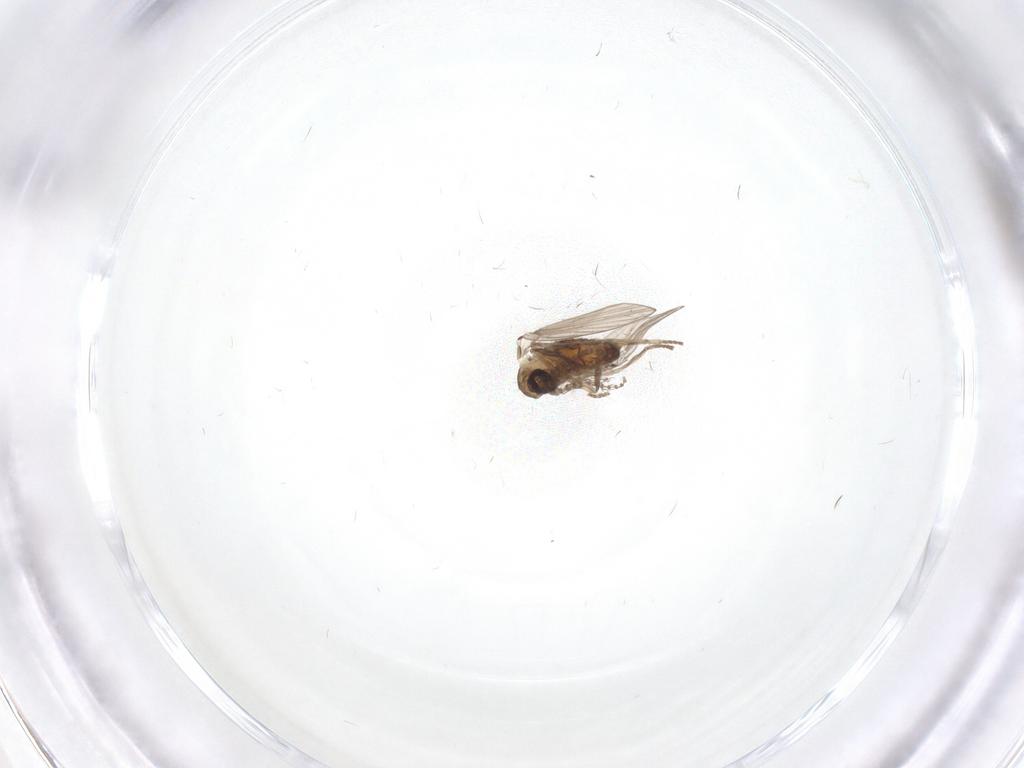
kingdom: Animalia
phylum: Arthropoda
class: Insecta
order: Diptera
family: Psychodidae
